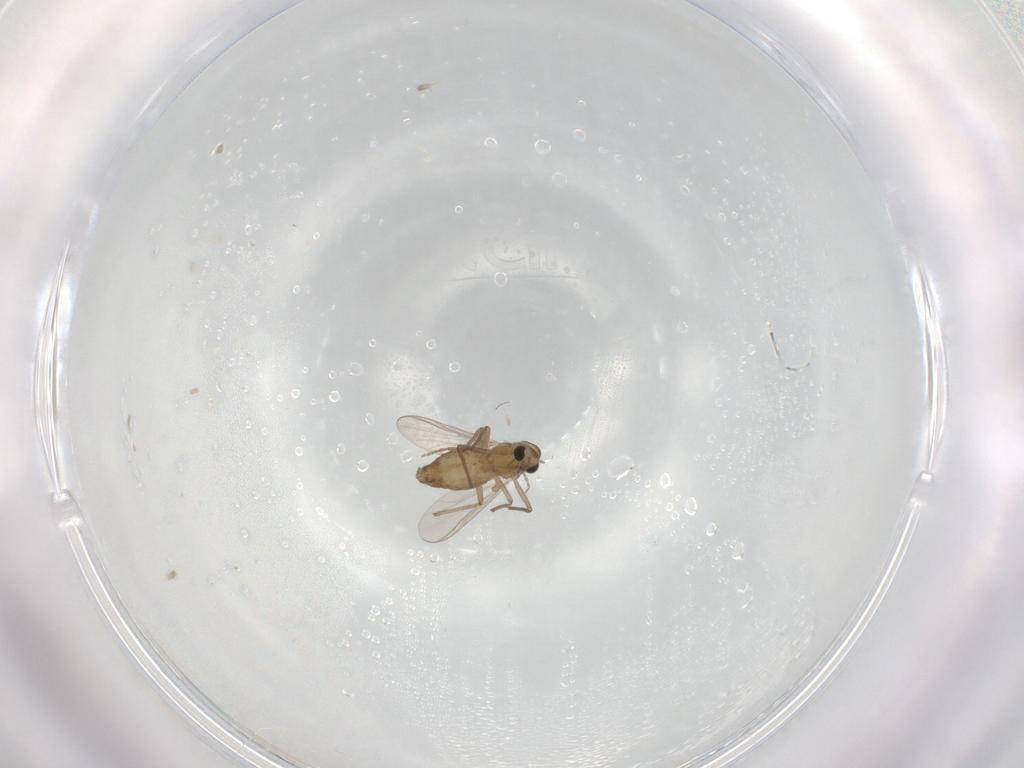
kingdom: Animalia
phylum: Arthropoda
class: Insecta
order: Diptera
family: Chironomidae
